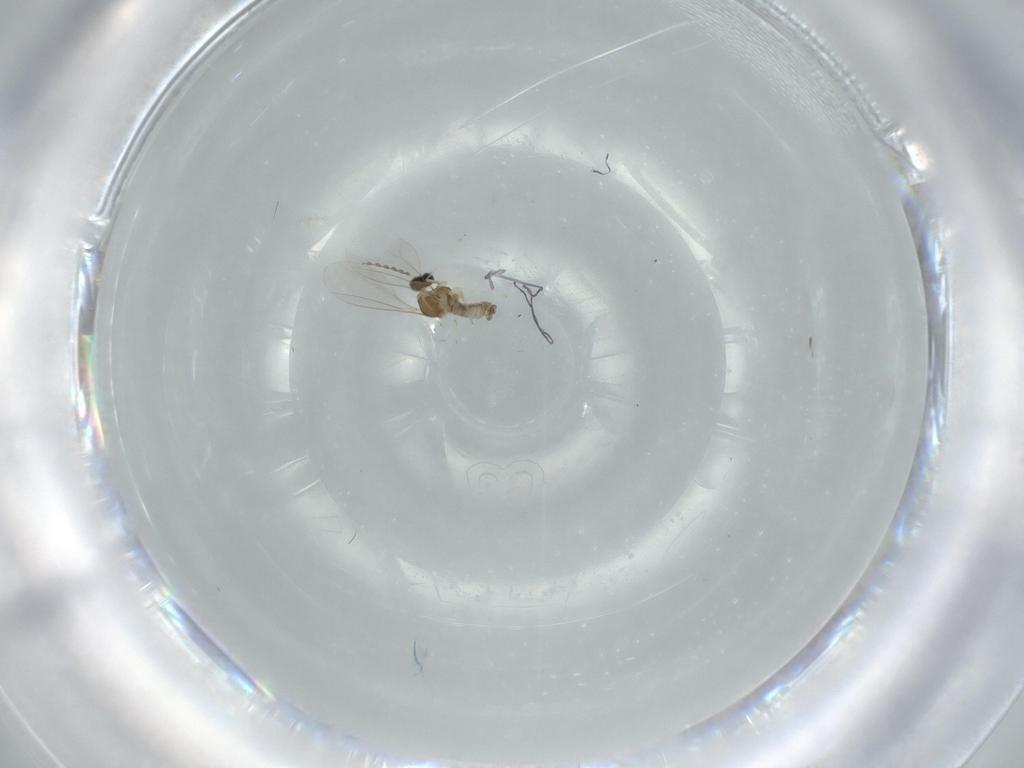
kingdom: Animalia
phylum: Arthropoda
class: Insecta
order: Diptera
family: Cecidomyiidae
